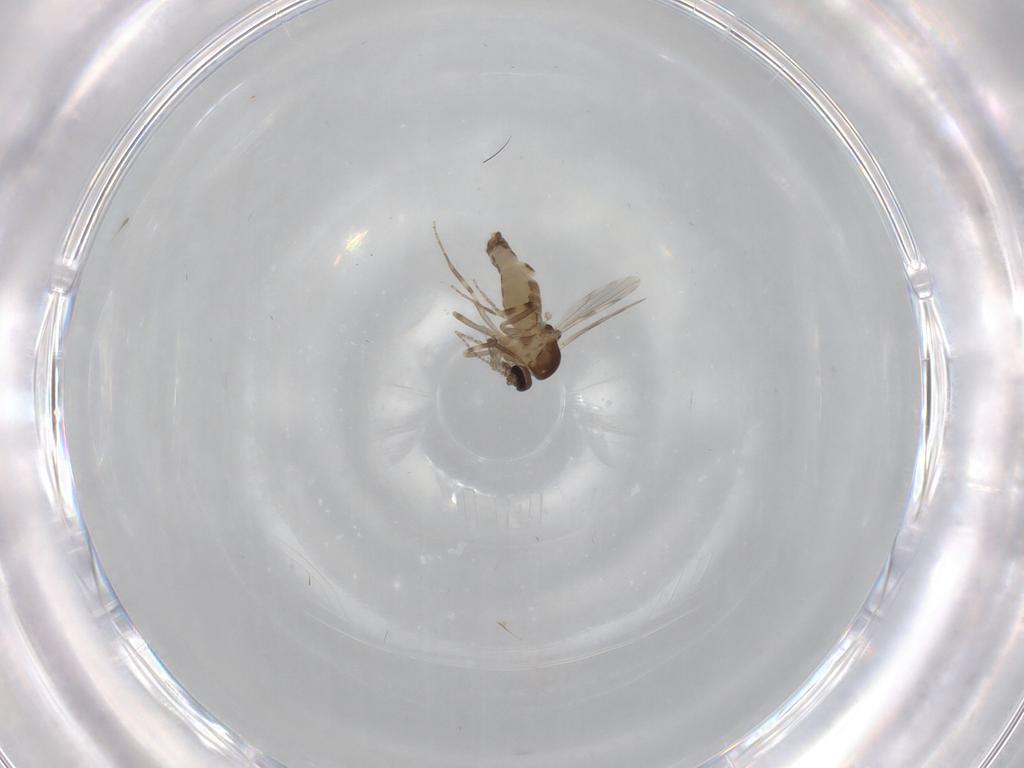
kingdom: Animalia
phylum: Arthropoda
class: Insecta
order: Diptera
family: Ceratopogonidae
